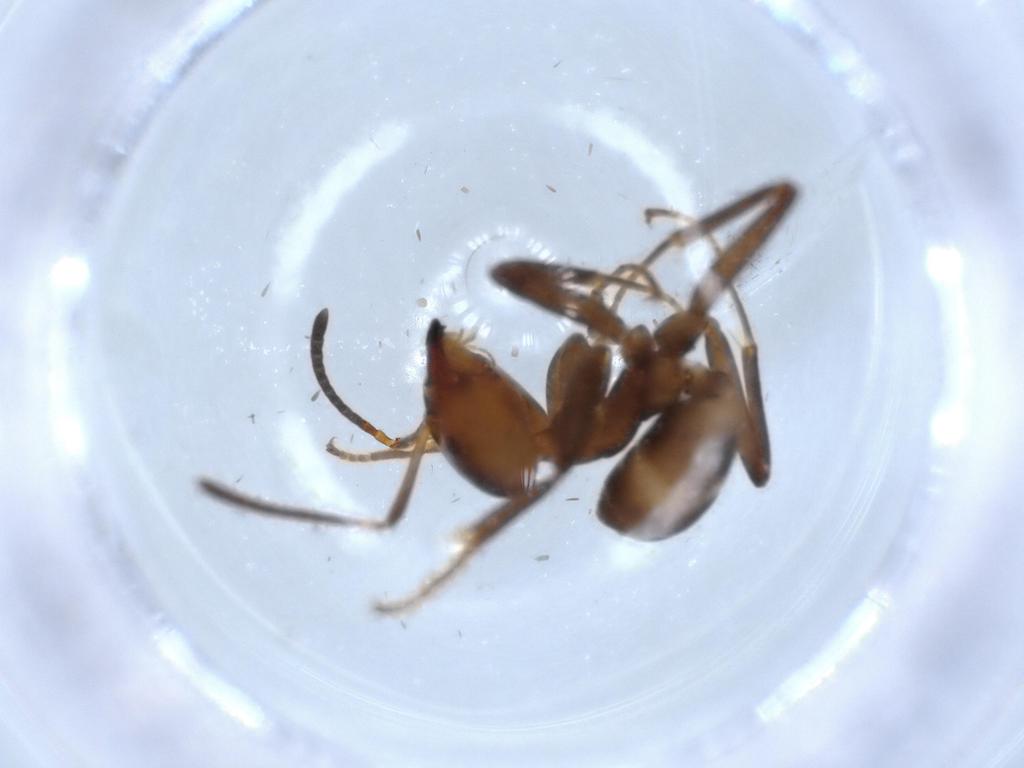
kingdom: Animalia
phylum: Arthropoda
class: Insecta
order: Hymenoptera
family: Formicidae
